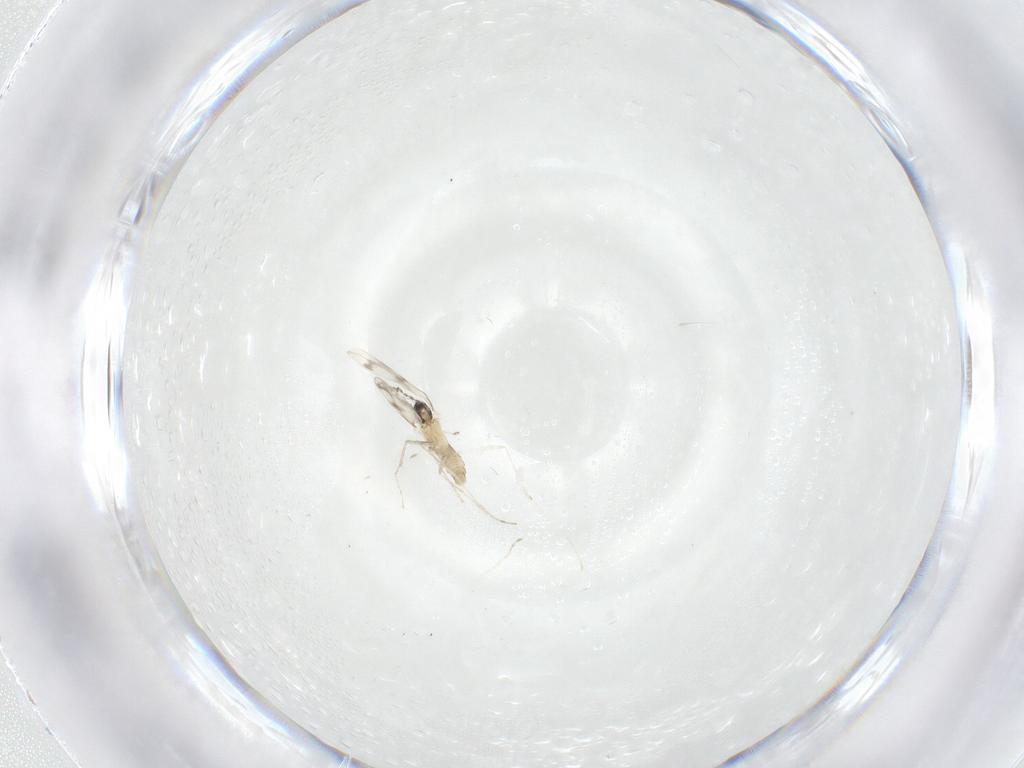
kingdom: Animalia
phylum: Arthropoda
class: Insecta
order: Diptera
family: Cecidomyiidae
